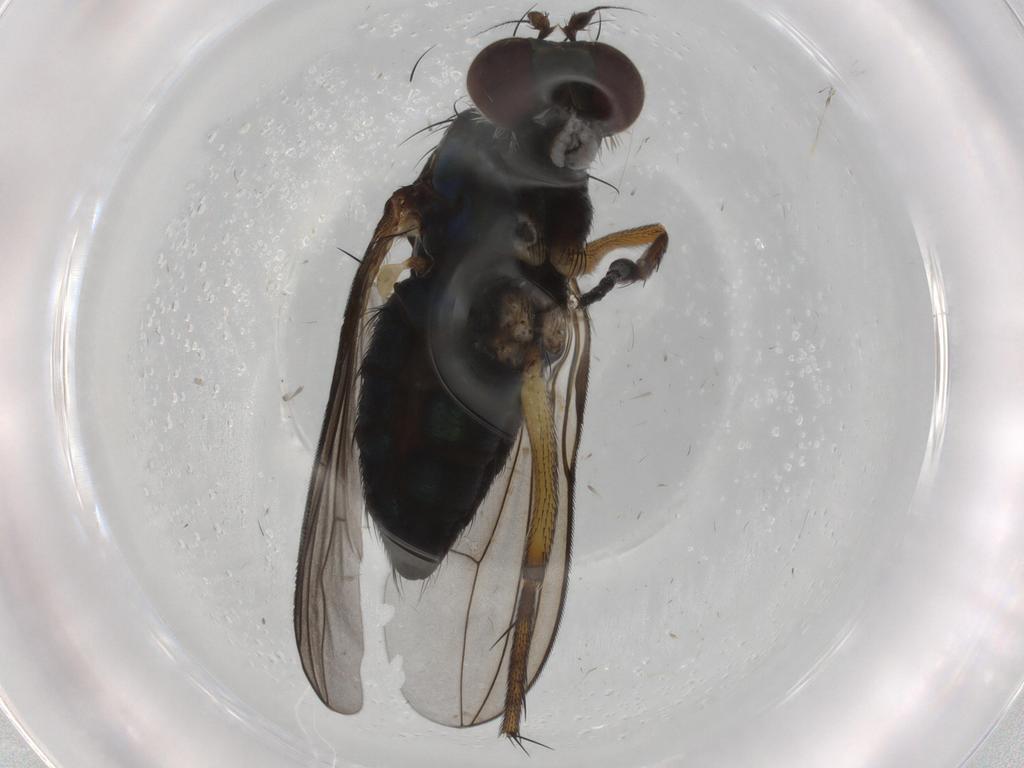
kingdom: Animalia
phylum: Arthropoda
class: Insecta
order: Diptera
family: Dolichopodidae
